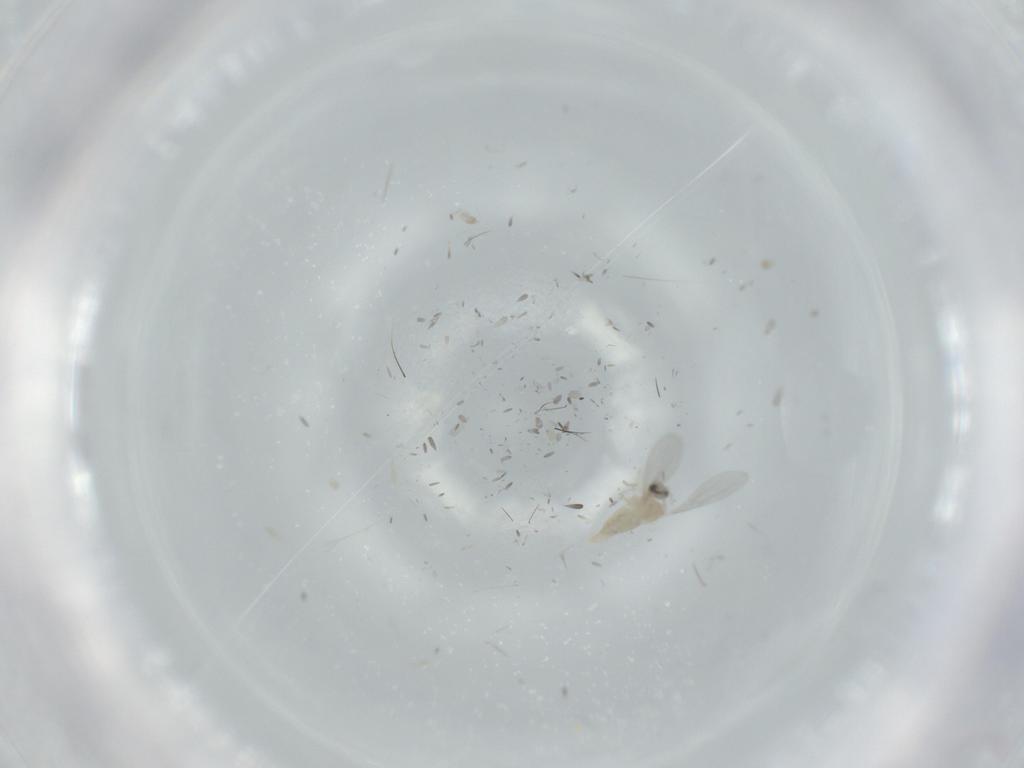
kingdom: Animalia
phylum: Arthropoda
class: Insecta
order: Diptera
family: Cecidomyiidae
